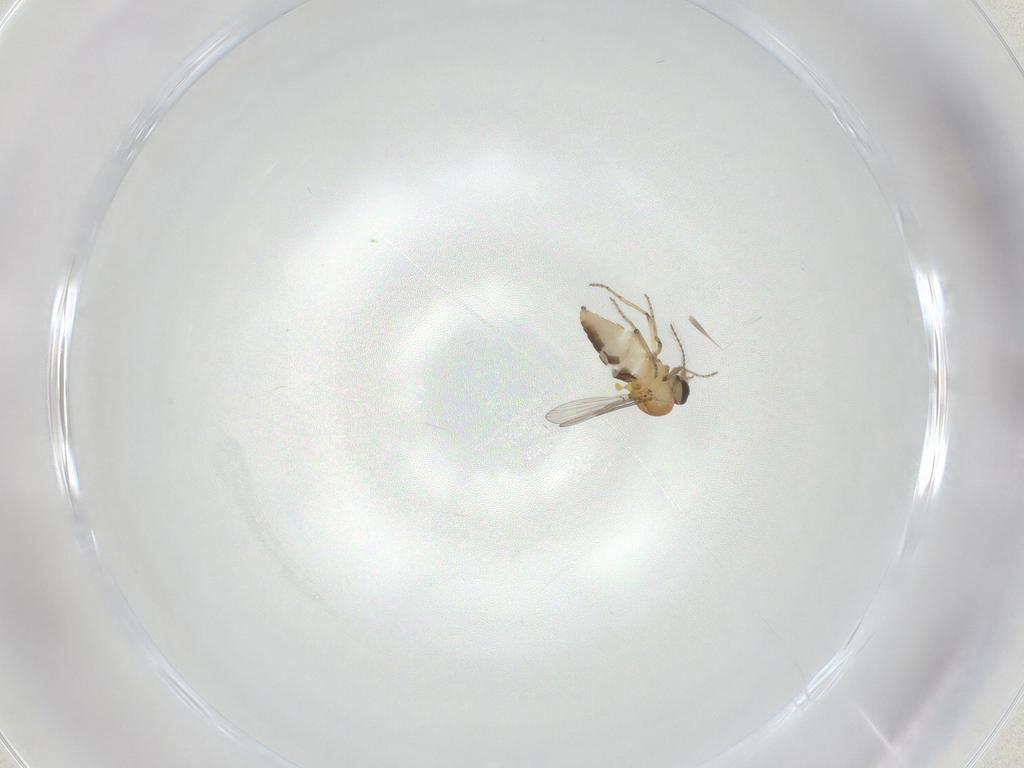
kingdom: Animalia
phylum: Arthropoda
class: Insecta
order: Diptera
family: Ceratopogonidae
